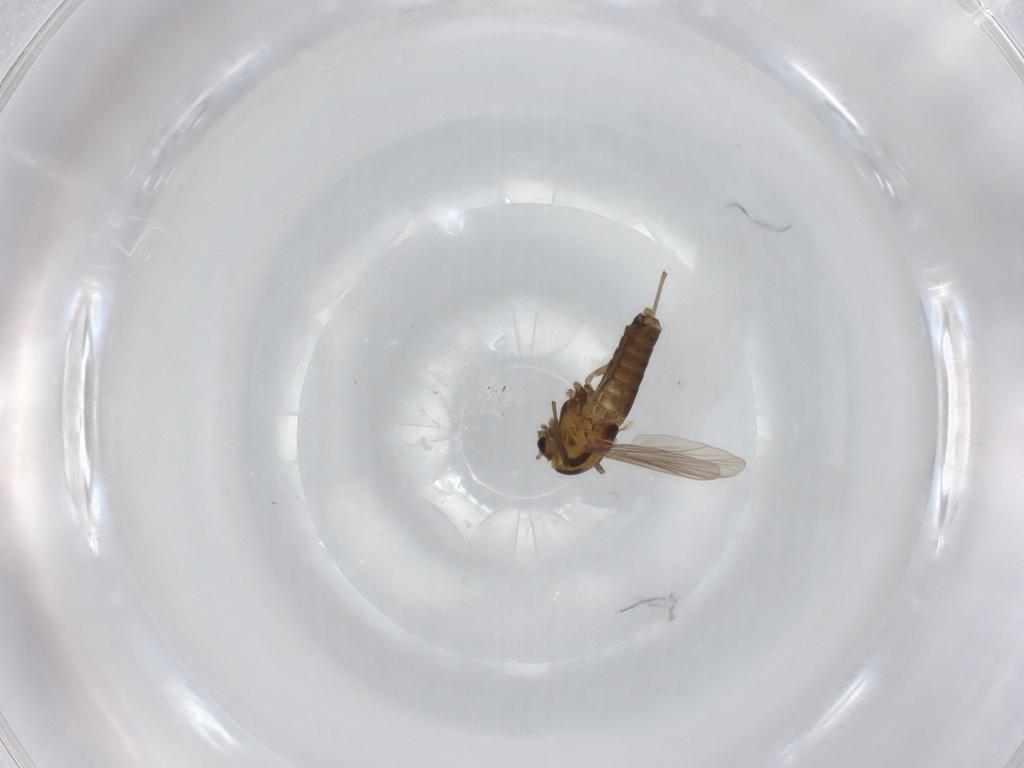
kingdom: Animalia
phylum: Arthropoda
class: Insecta
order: Diptera
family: Chironomidae
